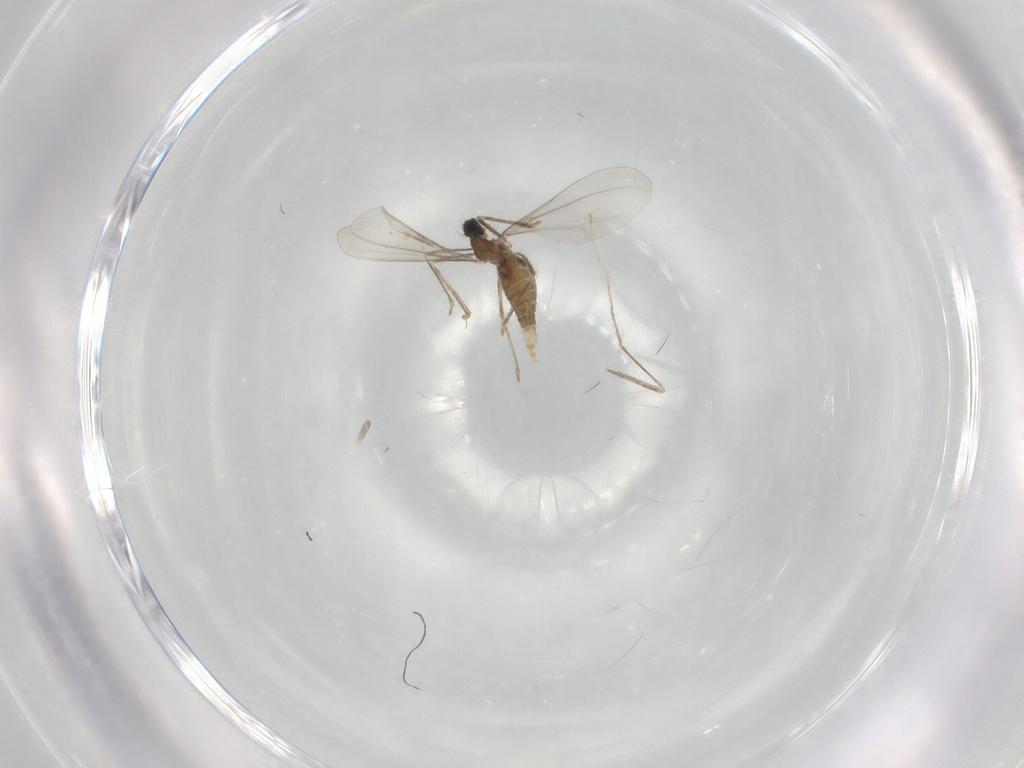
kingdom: Animalia
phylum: Arthropoda
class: Insecta
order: Diptera
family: Cecidomyiidae
